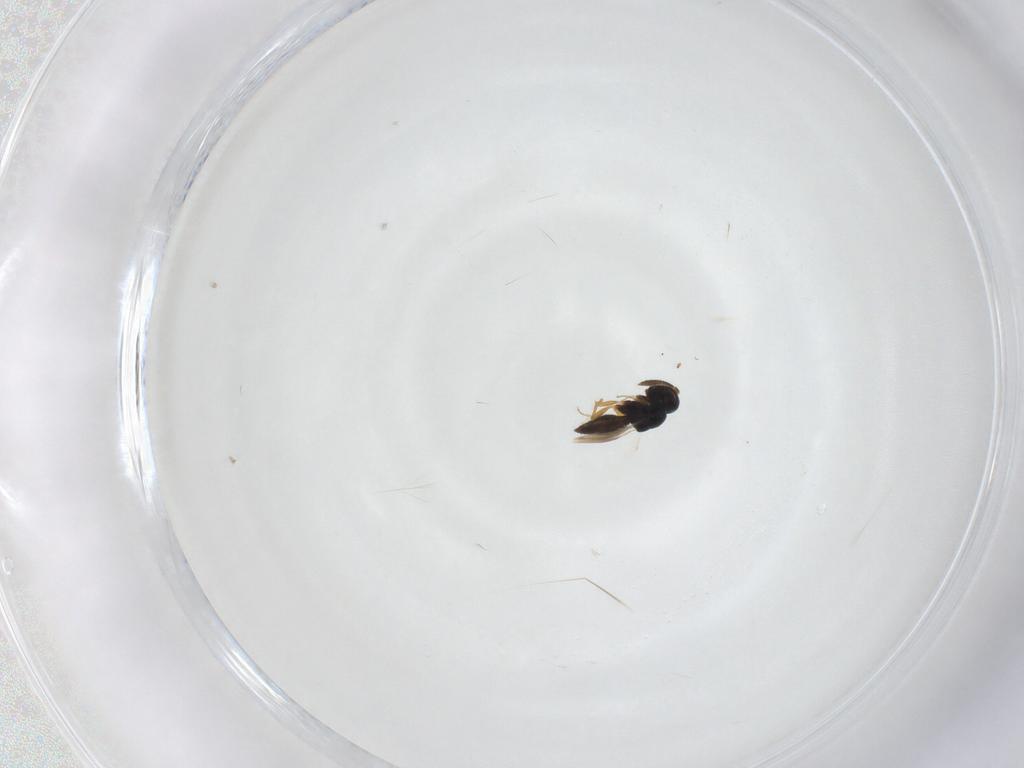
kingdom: Animalia
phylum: Arthropoda
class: Insecta
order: Hymenoptera
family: Scelionidae
